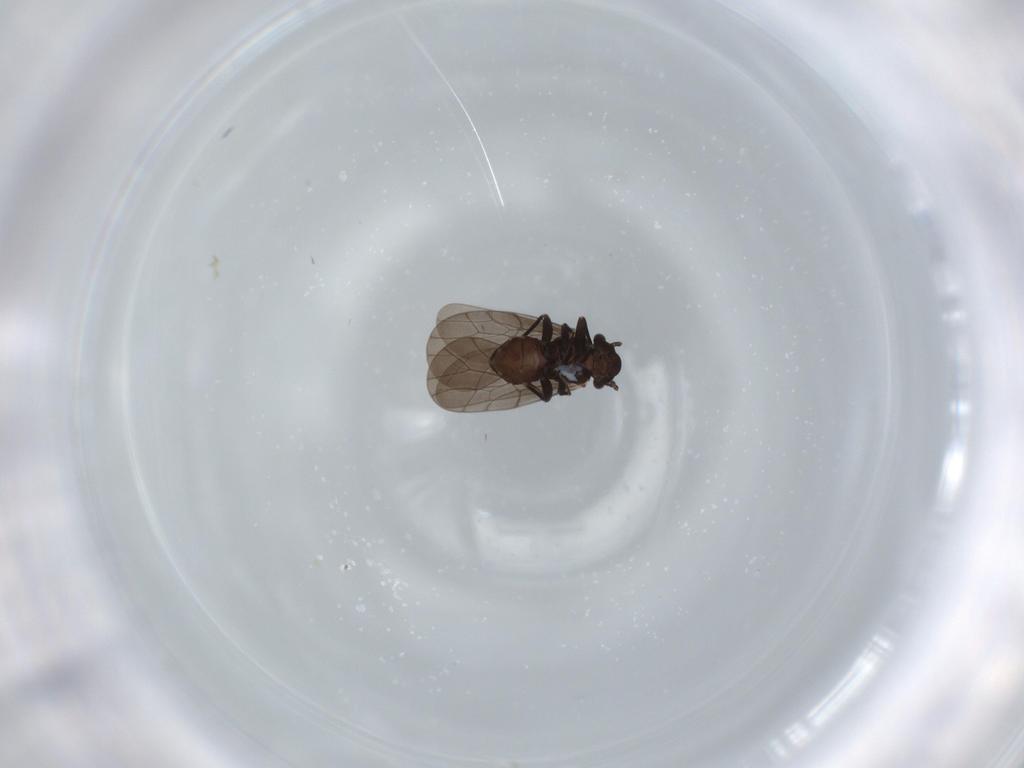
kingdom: Animalia
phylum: Arthropoda
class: Insecta
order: Psocodea
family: Lepidopsocidae
